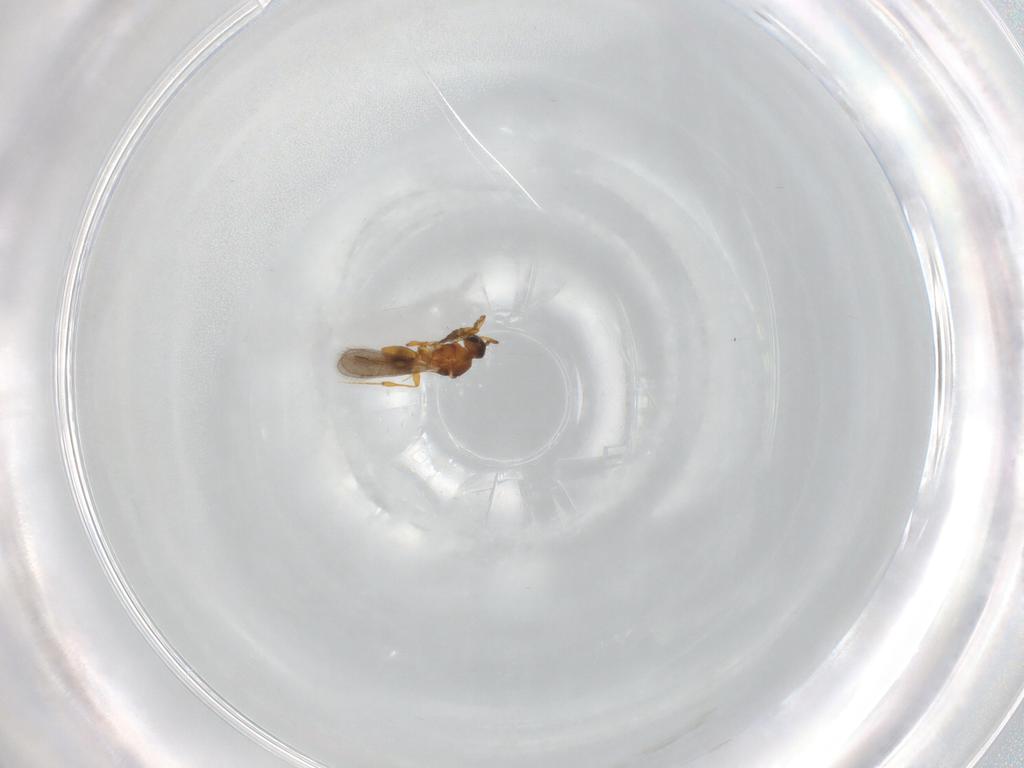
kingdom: Animalia
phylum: Arthropoda
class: Insecta
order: Hymenoptera
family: Platygastridae
